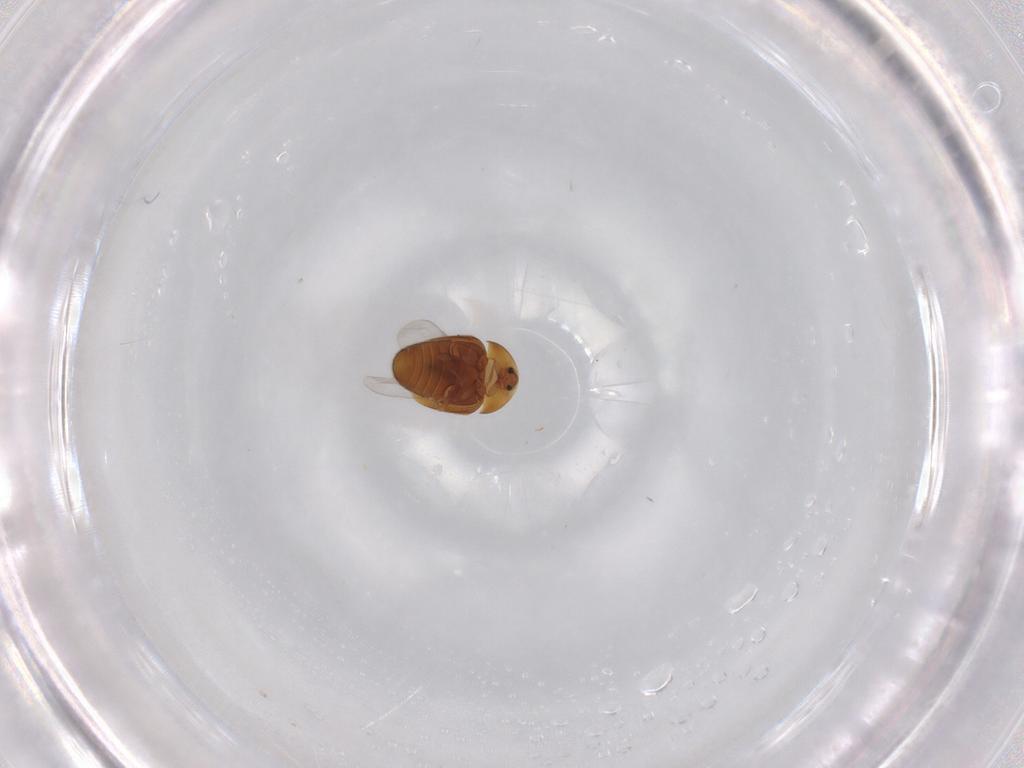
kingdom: Animalia
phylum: Arthropoda
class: Insecta
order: Coleoptera
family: Corylophidae
